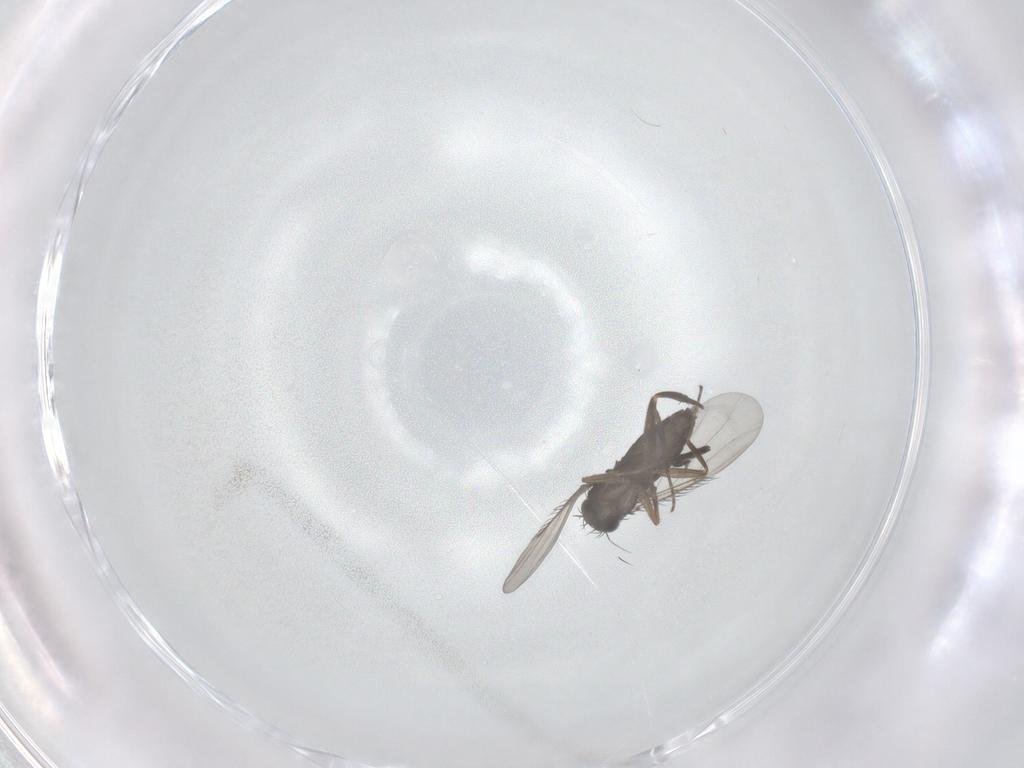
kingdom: Animalia
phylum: Arthropoda
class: Insecta
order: Diptera
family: Phoridae
